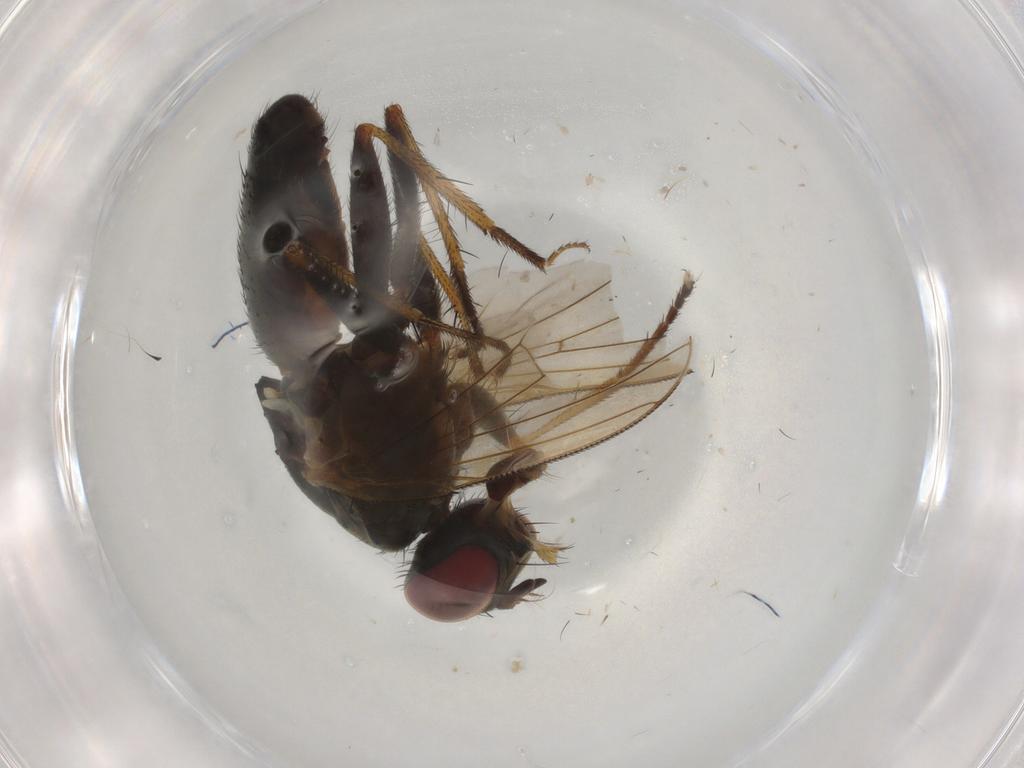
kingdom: Animalia
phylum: Arthropoda
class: Insecta
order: Diptera
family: Muscidae
